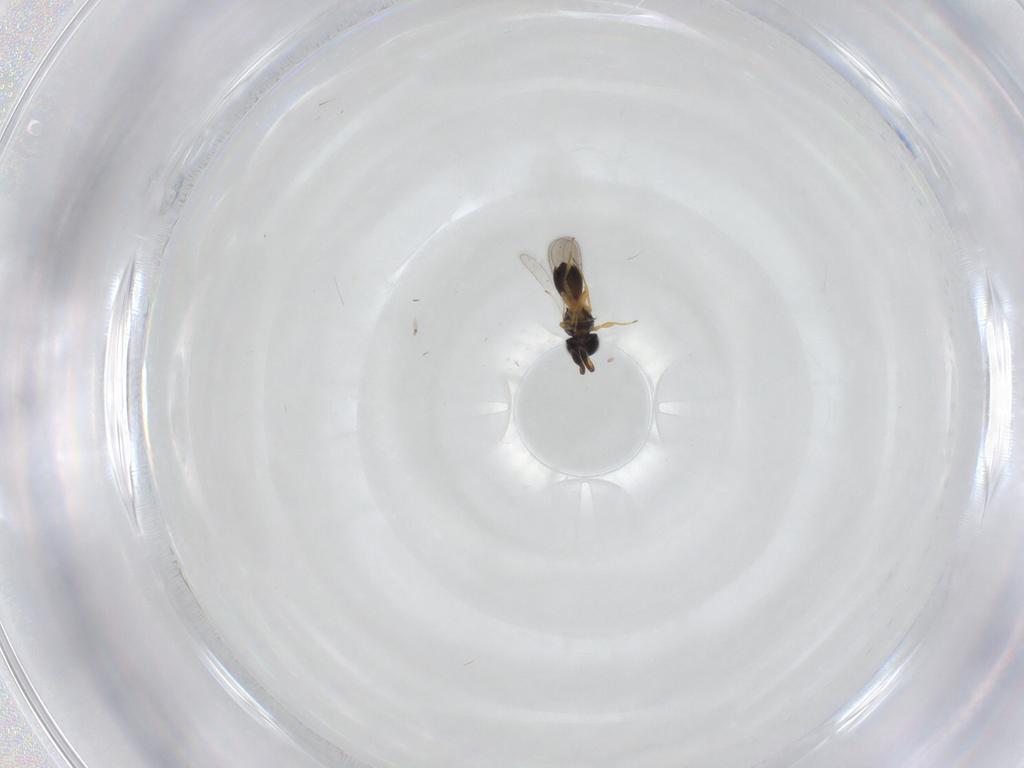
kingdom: Animalia
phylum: Arthropoda
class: Insecta
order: Hymenoptera
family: Scelionidae
